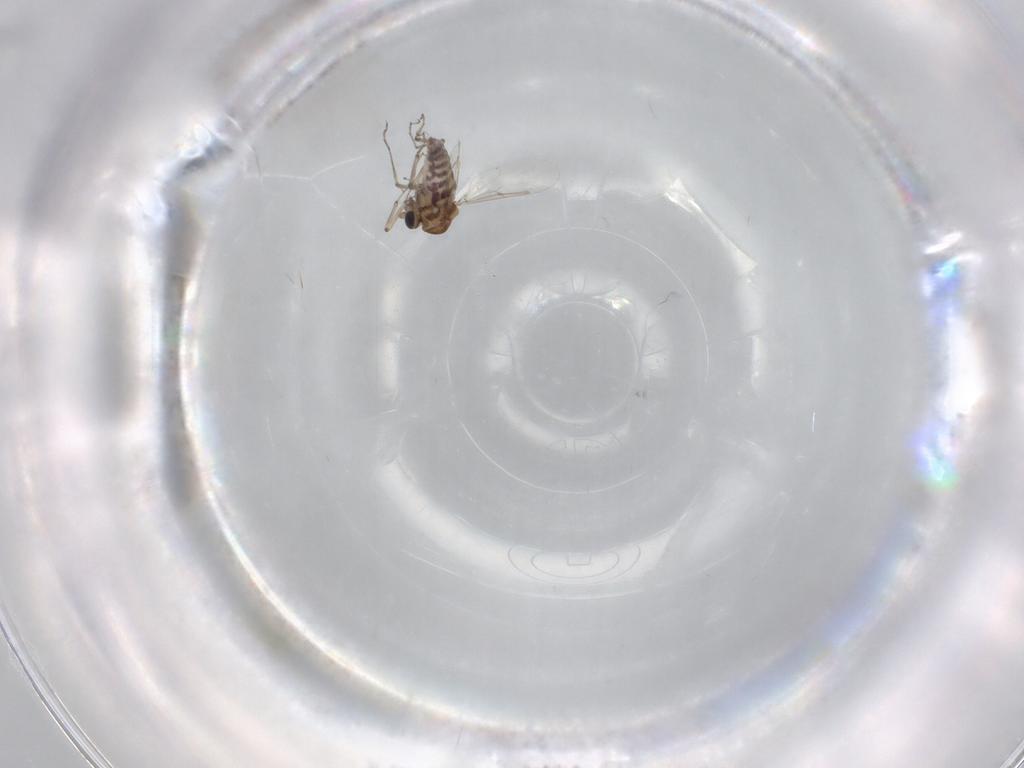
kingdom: Animalia
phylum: Arthropoda
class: Insecta
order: Diptera
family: Ceratopogonidae
